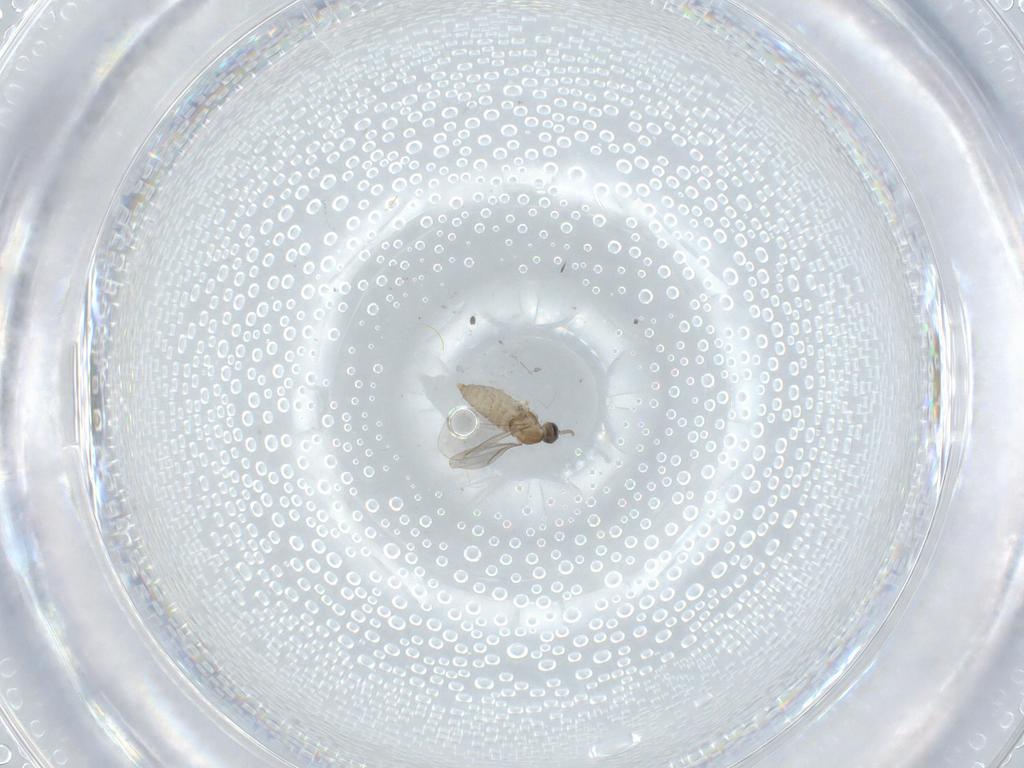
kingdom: Animalia
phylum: Arthropoda
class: Insecta
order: Diptera
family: Cecidomyiidae
